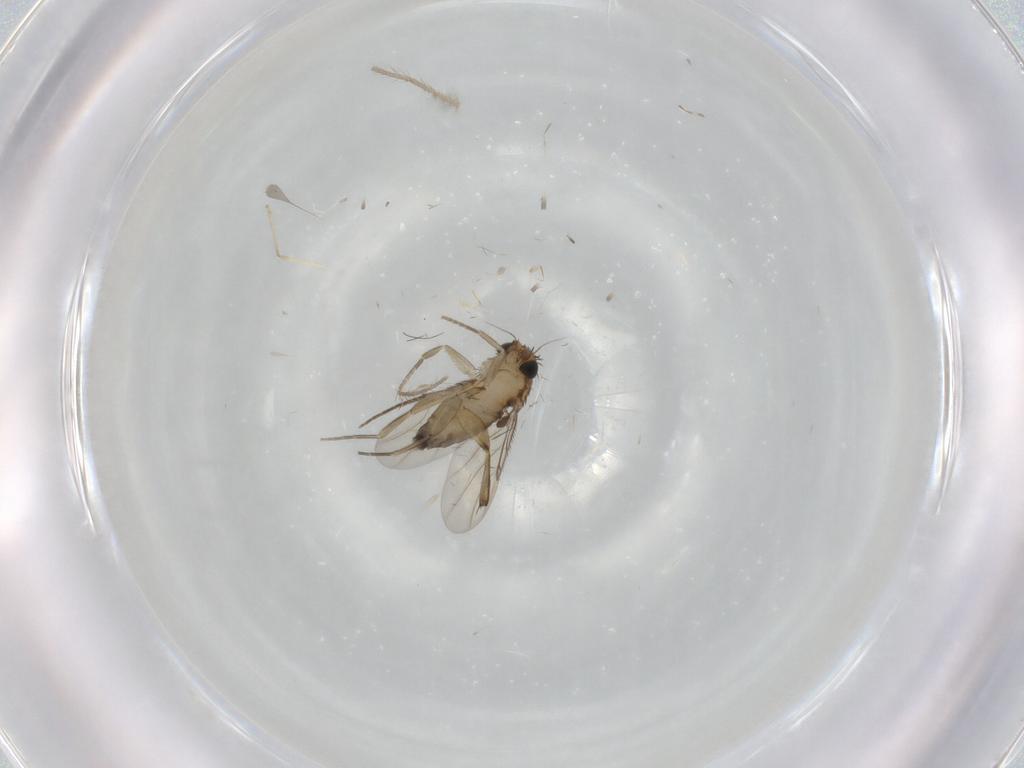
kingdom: Animalia
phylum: Arthropoda
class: Insecta
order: Diptera
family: Phoridae
